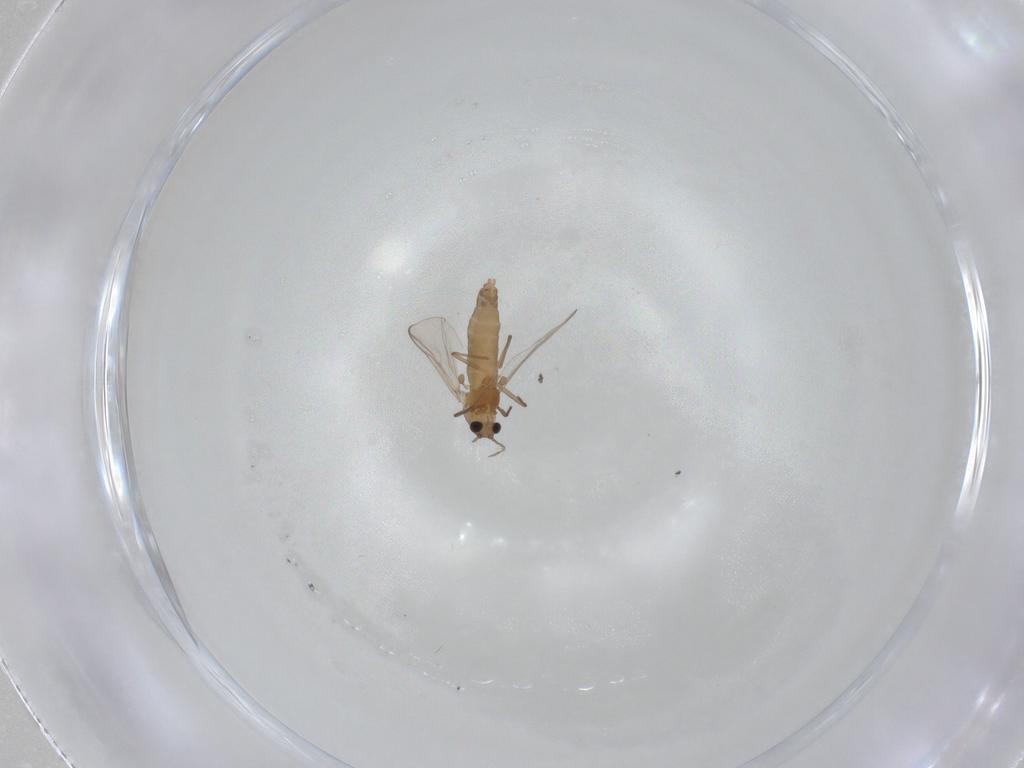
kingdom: Animalia
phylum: Arthropoda
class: Insecta
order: Diptera
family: Chironomidae
